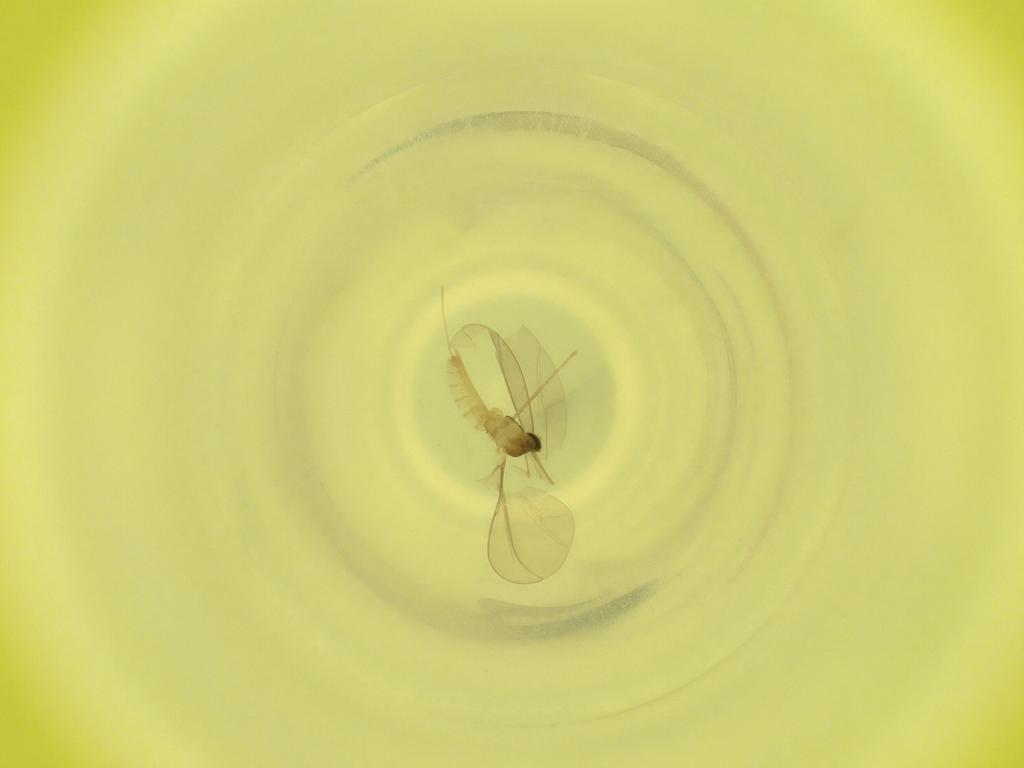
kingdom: Animalia
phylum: Arthropoda
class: Insecta
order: Diptera
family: Cecidomyiidae
